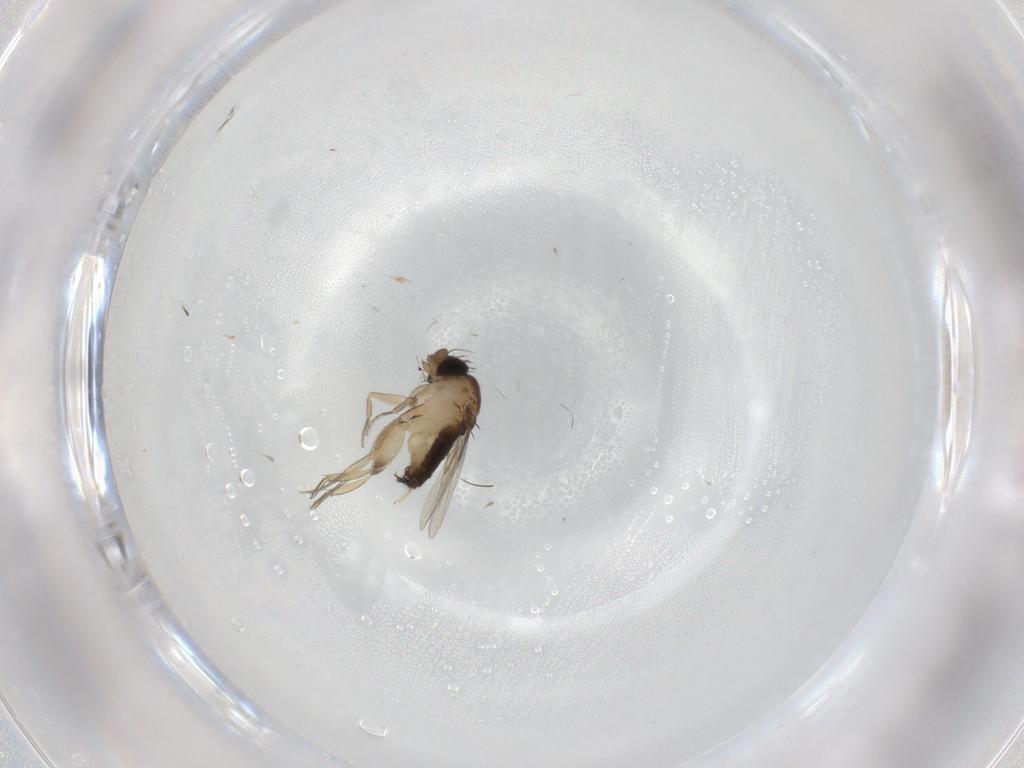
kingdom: Animalia
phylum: Arthropoda
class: Insecta
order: Diptera
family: Phoridae
